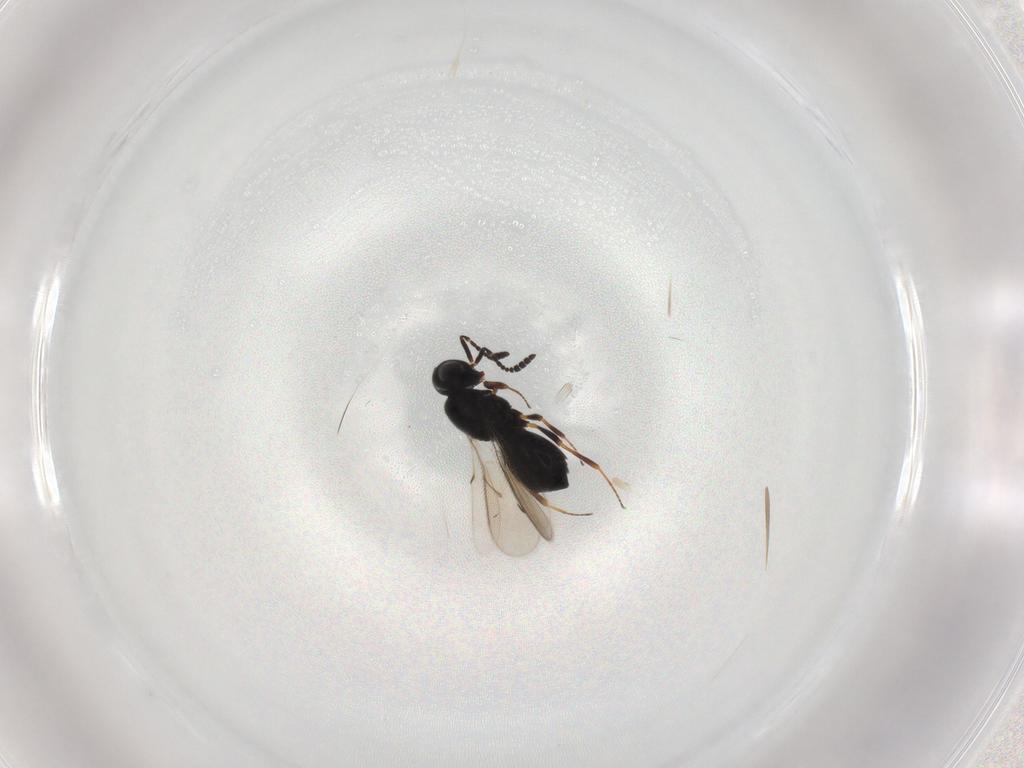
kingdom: Animalia
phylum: Arthropoda
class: Insecta
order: Hymenoptera
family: Scelionidae
